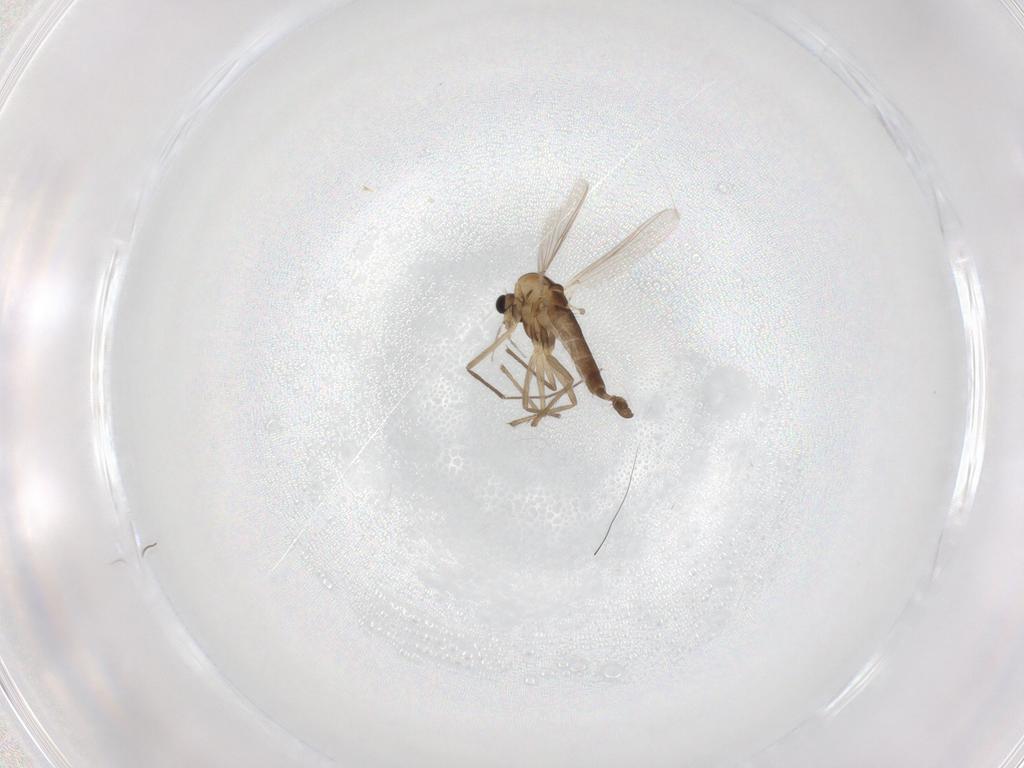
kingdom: Animalia
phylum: Arthropoda
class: Insecta
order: Diptera
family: Chironomidae
